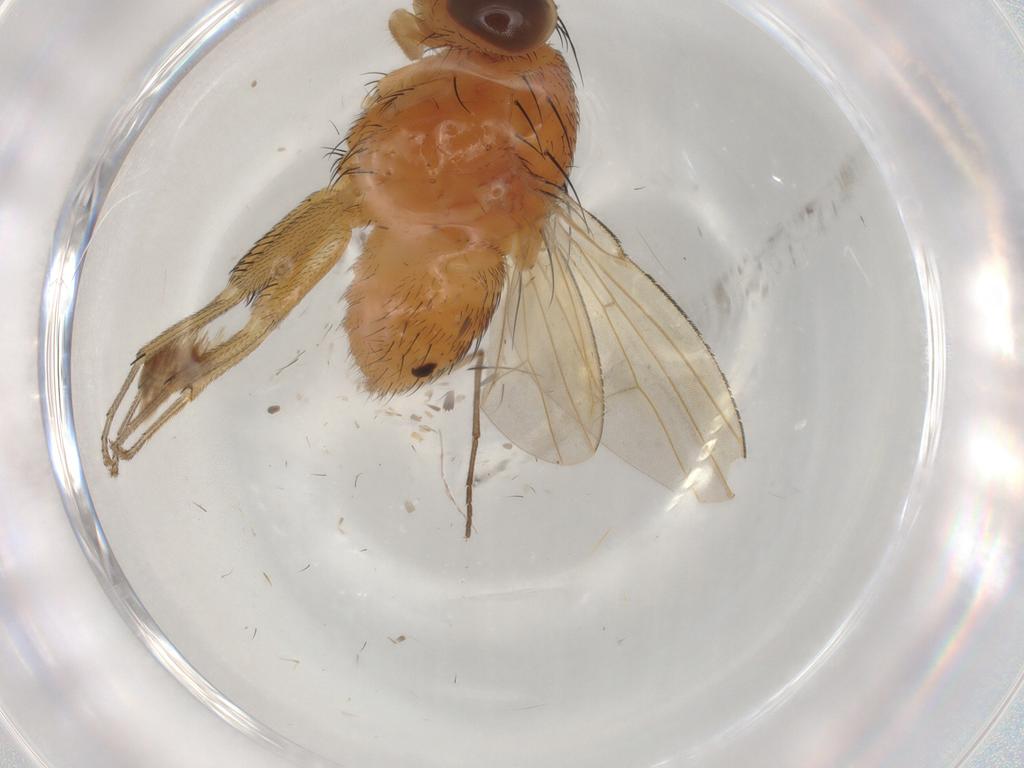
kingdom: Animalia
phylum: Arthropoda
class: Insecta
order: Diptera
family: Lauxaniidae
